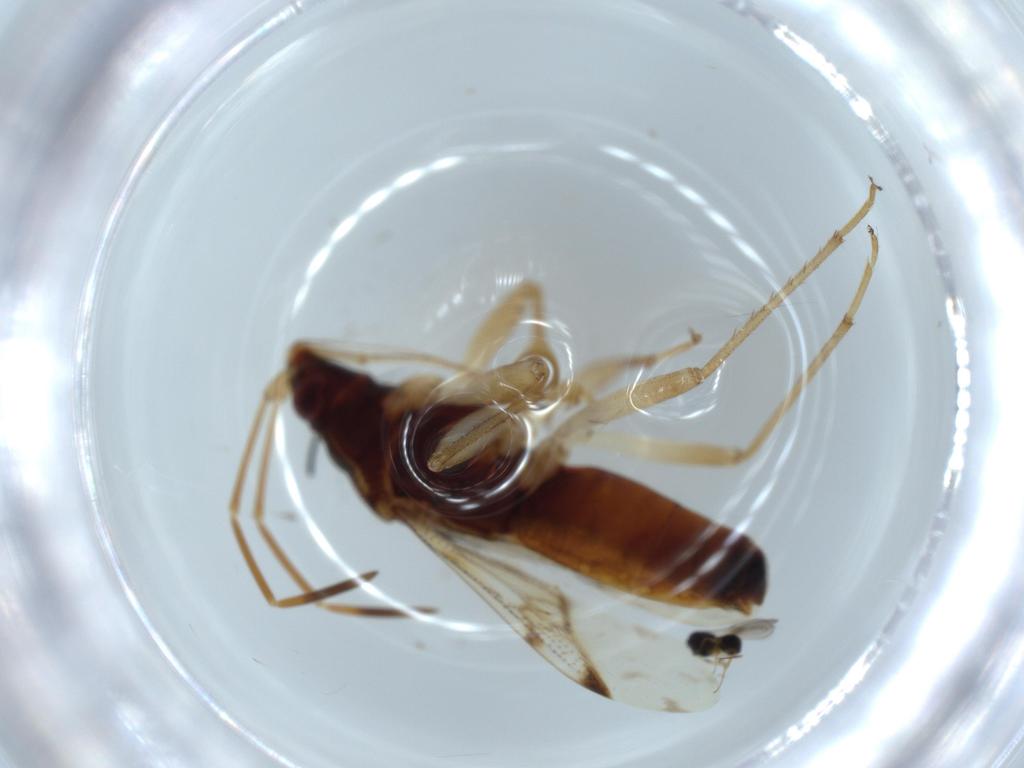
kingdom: Animalia
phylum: Arthropoda
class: Insecta
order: Hemiptera
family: Rhyparochromidae
